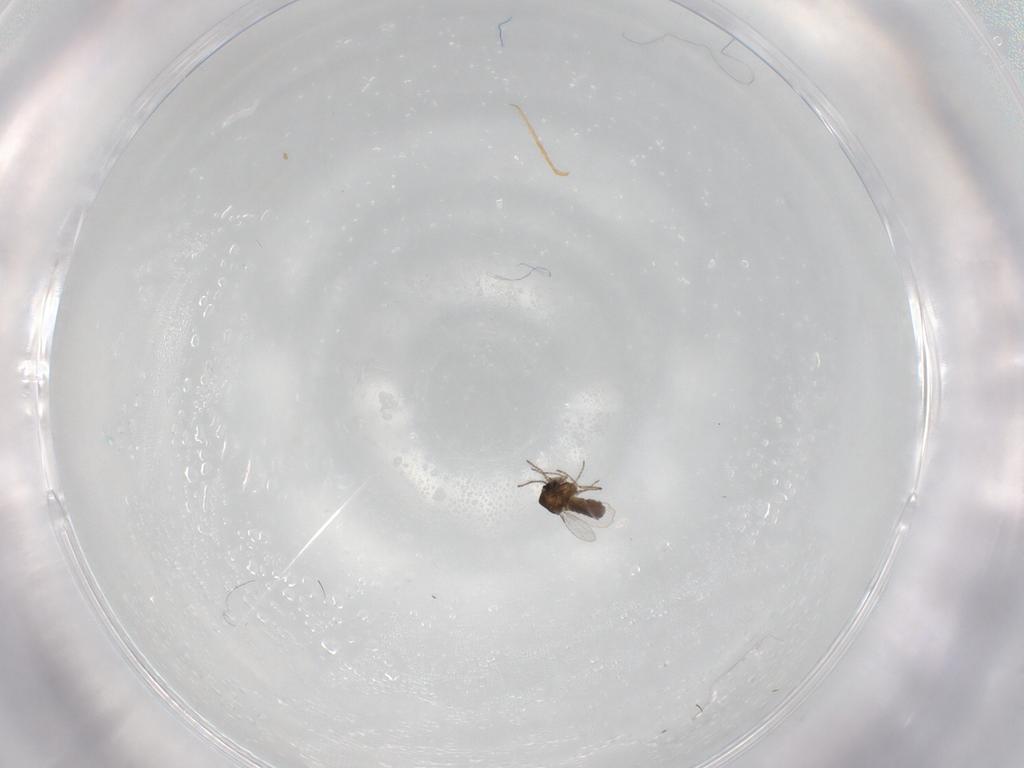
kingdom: Animalia
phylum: Arthropoda
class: Insecta
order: Diptera
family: Ceratopogonidae
